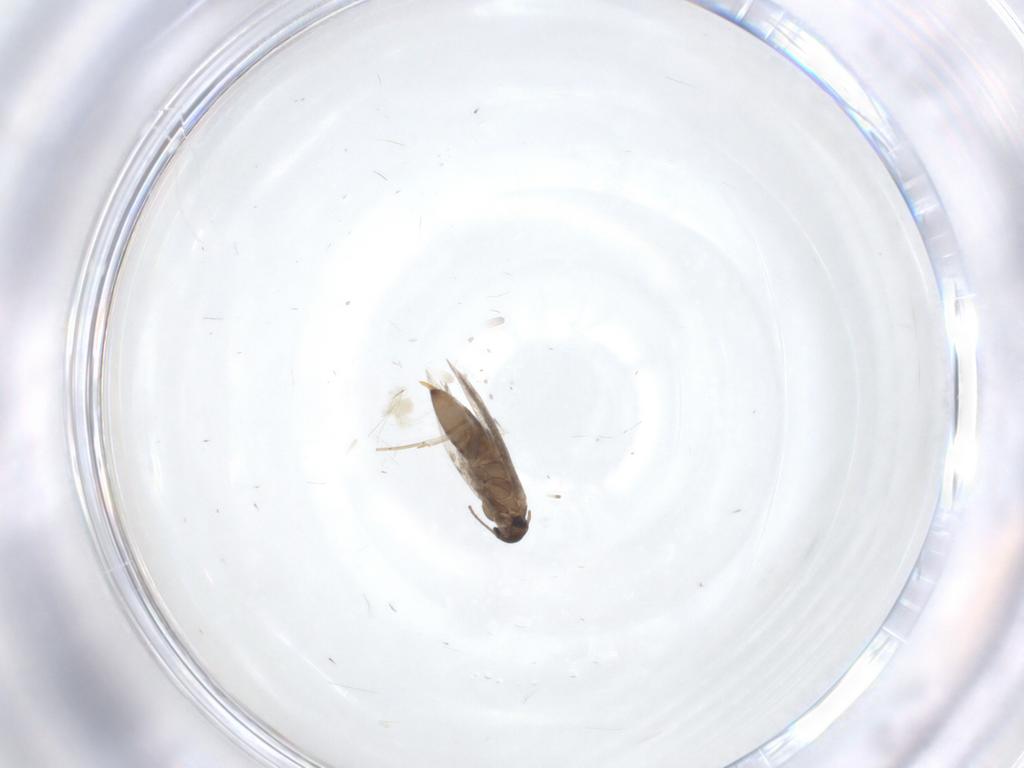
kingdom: Animalia
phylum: Arthropoda
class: Insecta
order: Lepidoptera
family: Heliozelidae
